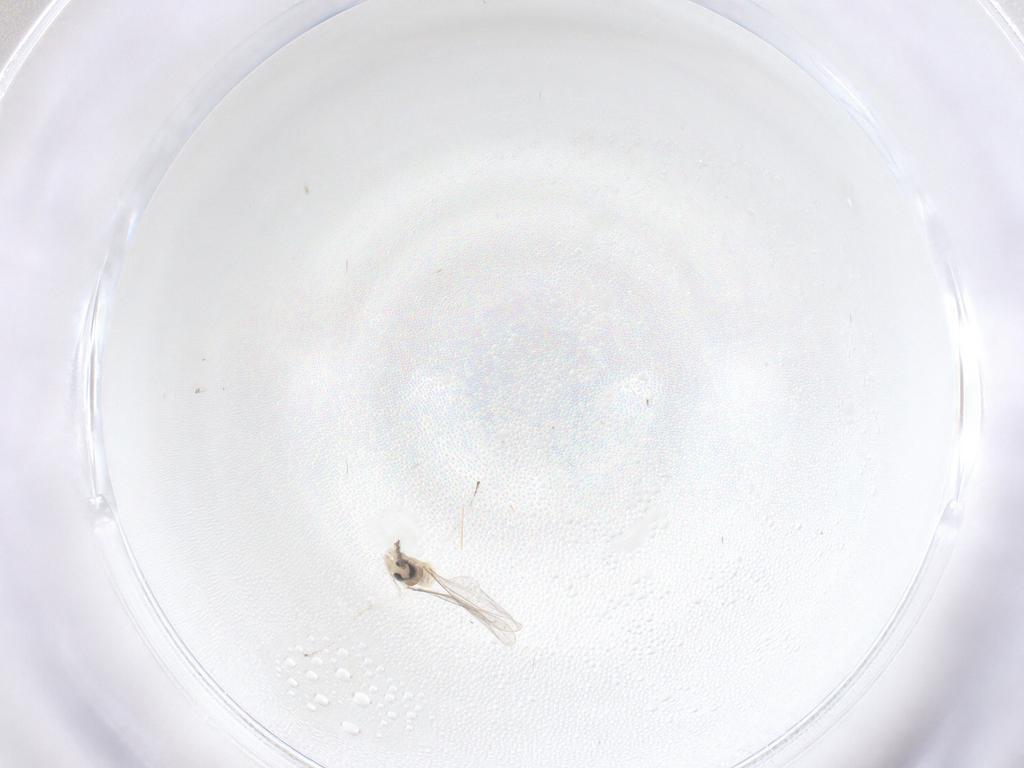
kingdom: Animalia
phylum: Arthropoda
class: Insecta
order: Diptera
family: Cecidomyiidae
